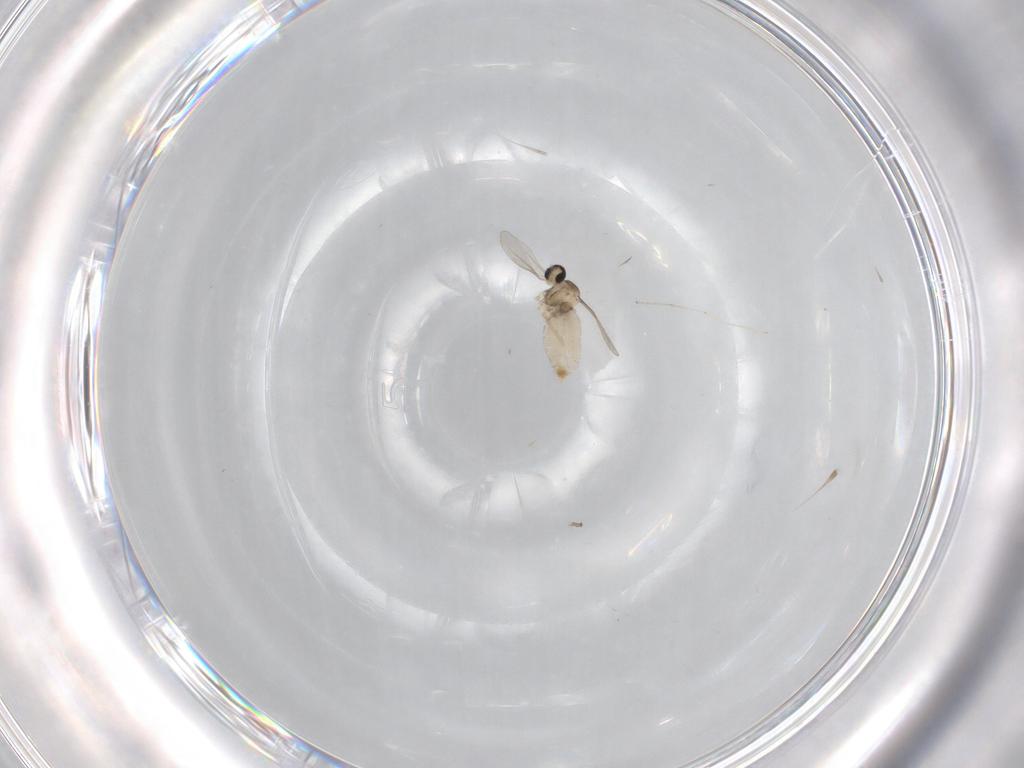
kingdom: Animalia
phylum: Arthropoda
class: Insecta
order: Diptera
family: Cecidomyiidae
